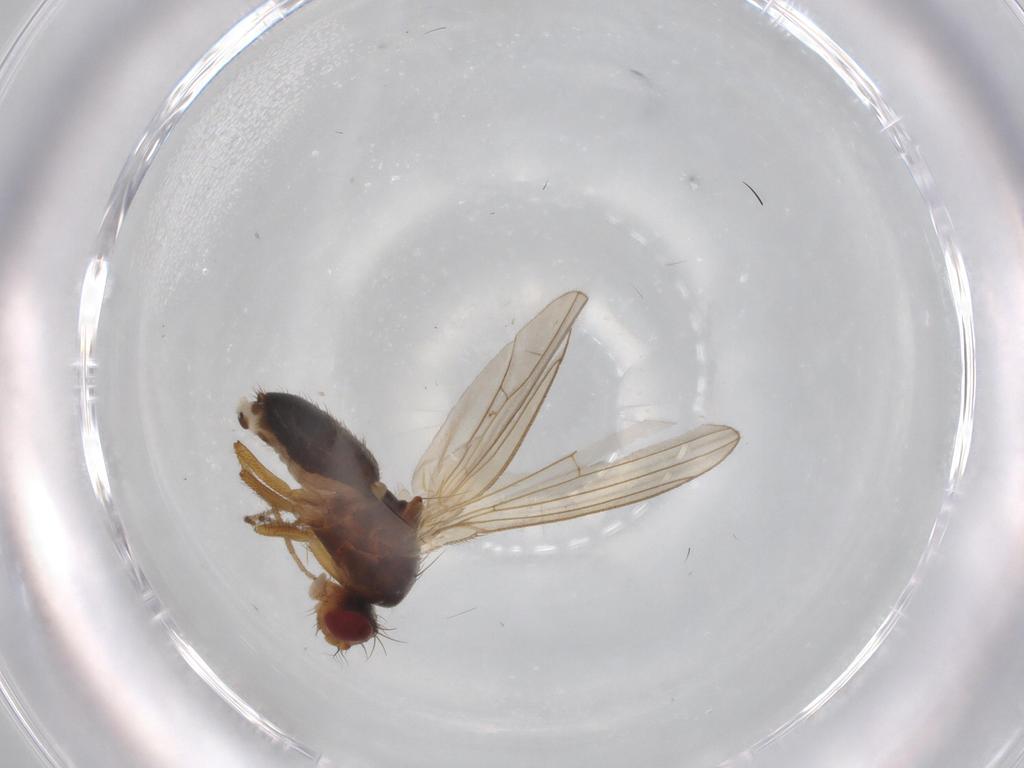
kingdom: Animalia
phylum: Arthropoda
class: Insecta
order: Diptera
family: Drosophilidae
